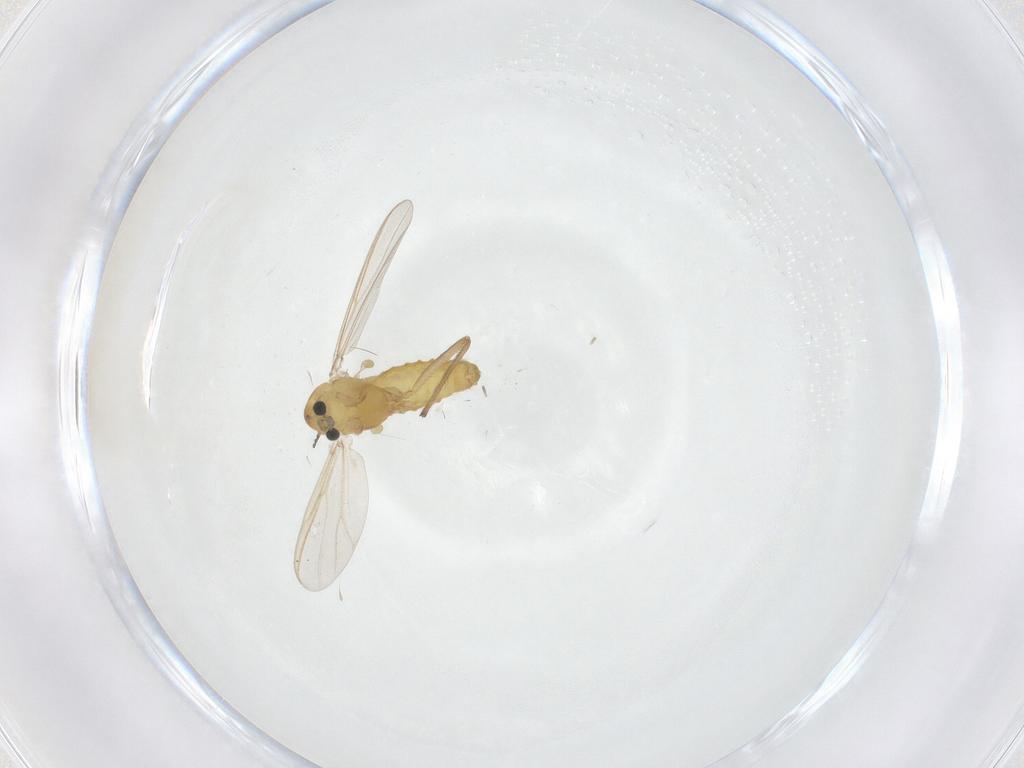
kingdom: Animalia
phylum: Arthropoda
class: Insecta
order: Diptera
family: Chironomidae
